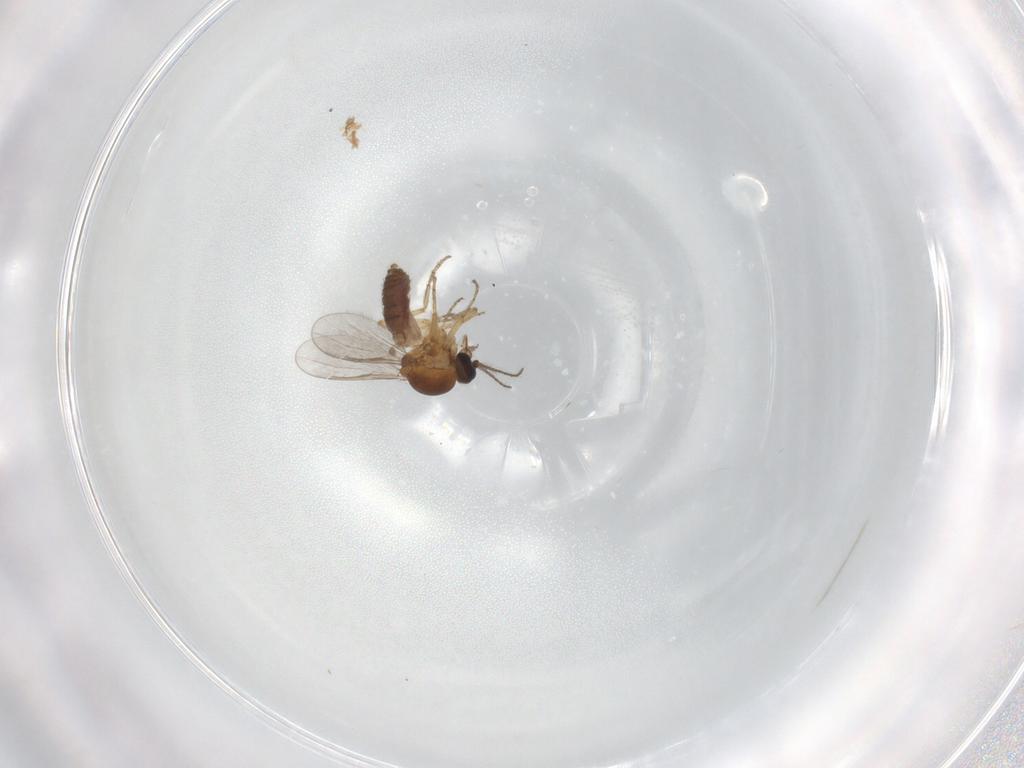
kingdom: Animalia
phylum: Arthropoda
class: Insecta
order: Diptera
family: Chironomidae
